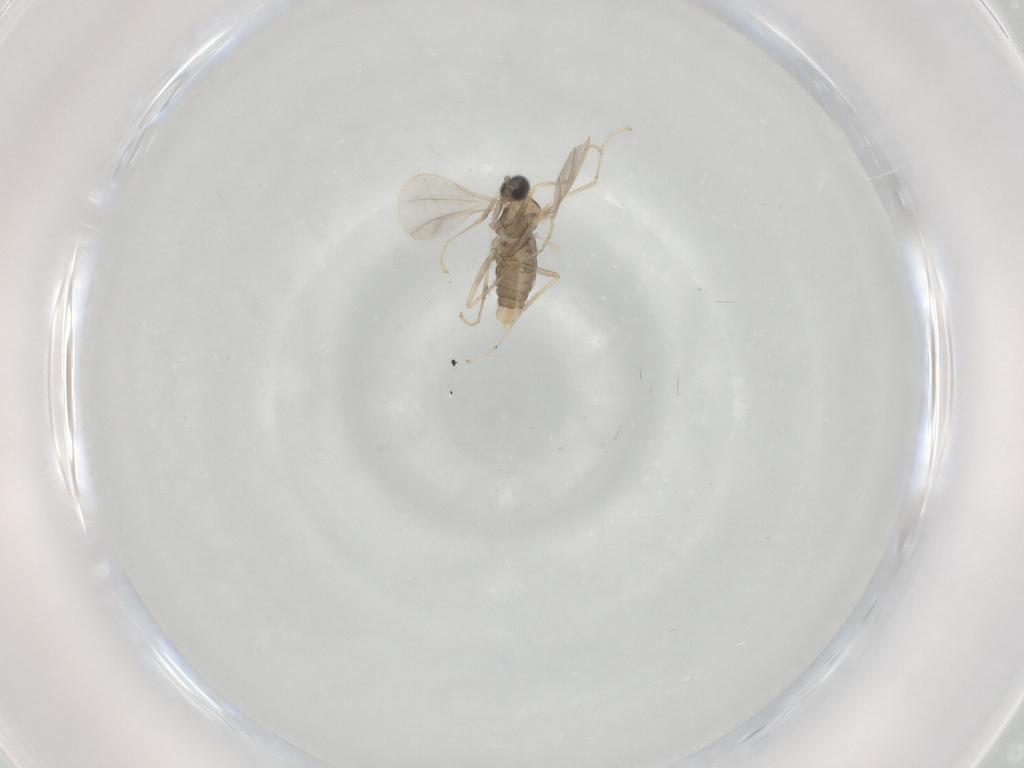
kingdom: Animalia
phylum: Arthropoda
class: Insecta
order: Diptera
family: Cecidomyiidae
